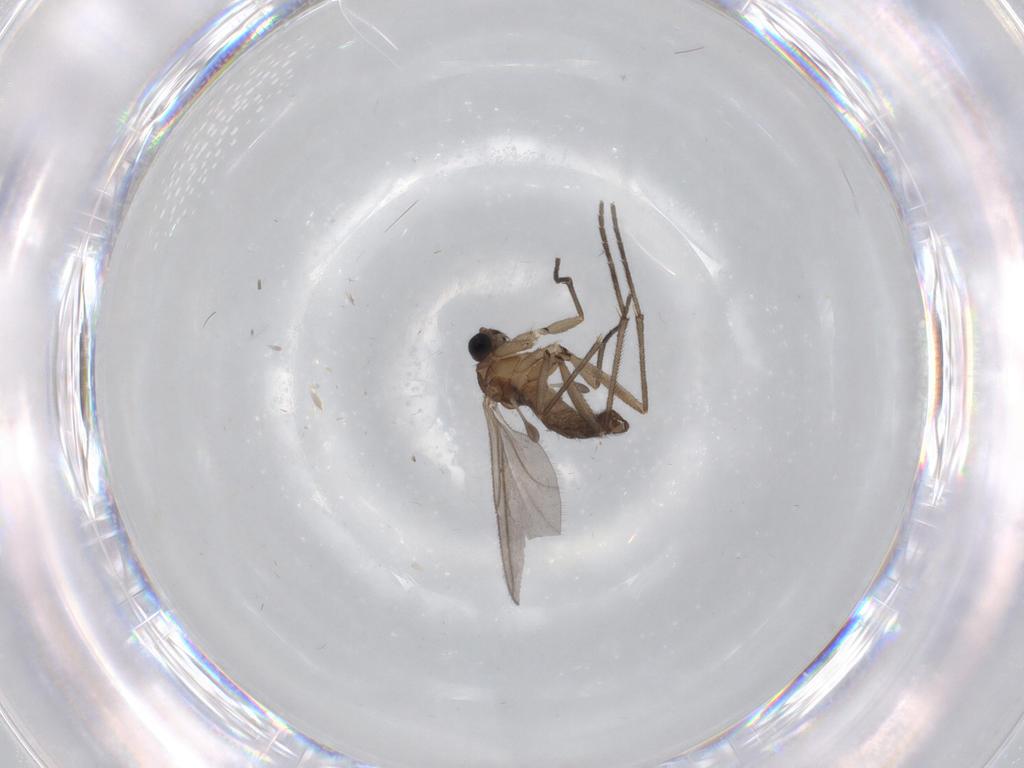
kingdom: Animalia
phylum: Arthropoda
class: Insecta
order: Diptera
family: Sciaridae
